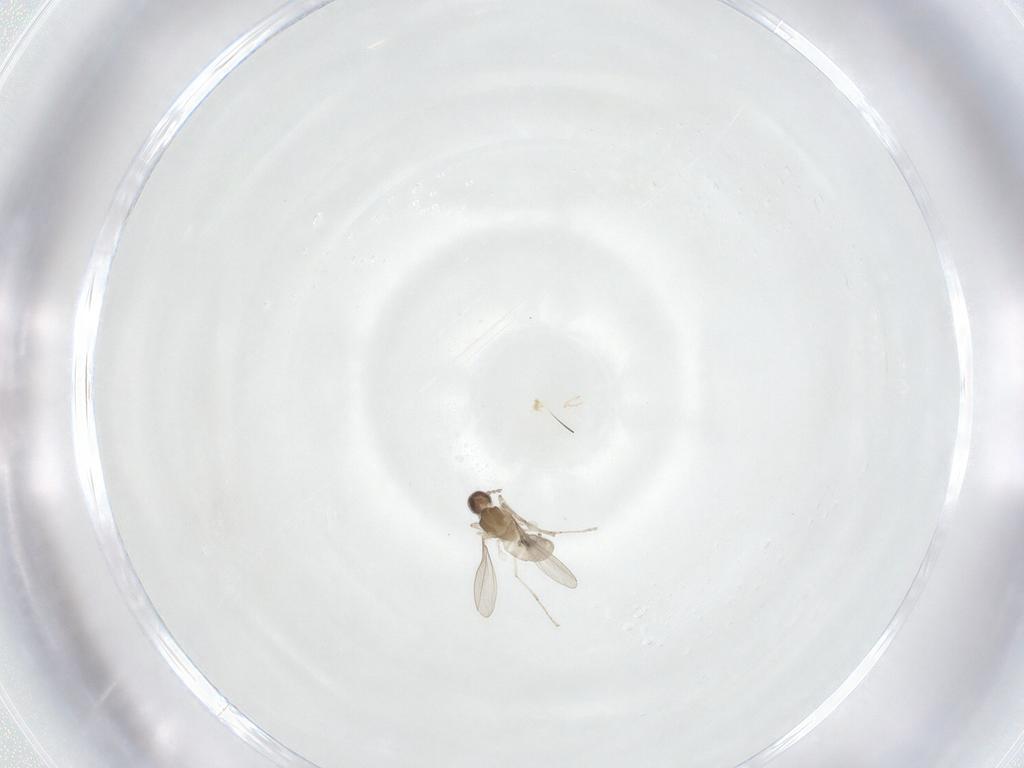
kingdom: Animalia
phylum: Arthropoda
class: Insecta
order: Diptera
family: Cecidomyiidae
